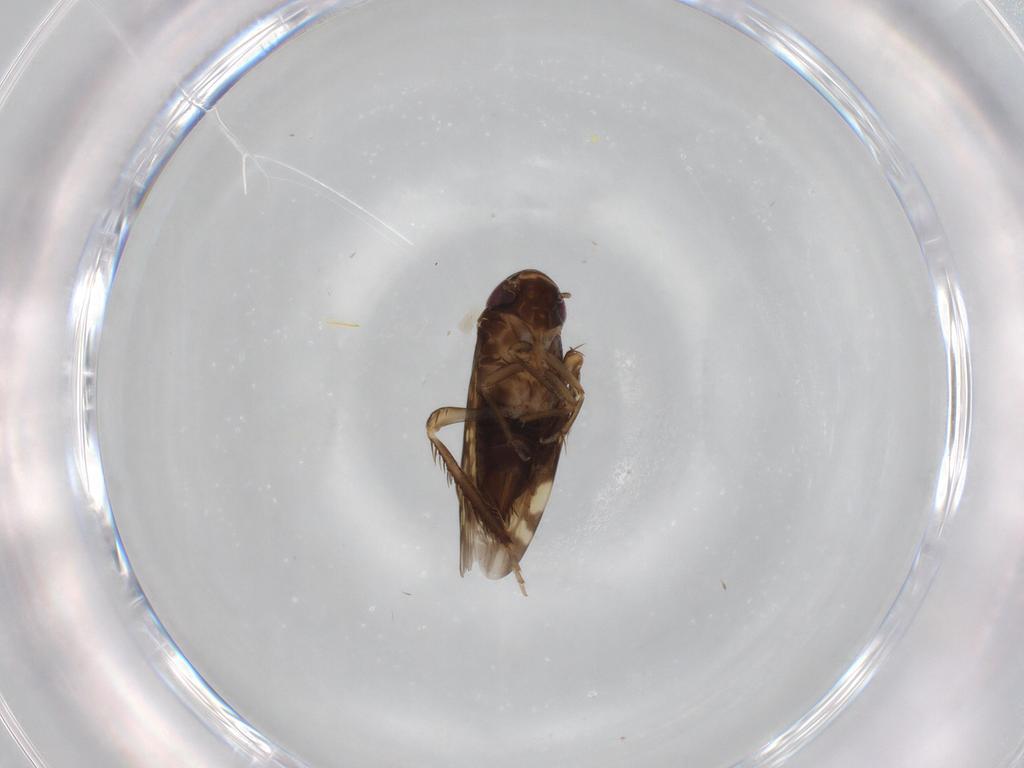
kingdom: Animalia
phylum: Arthropoda
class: Insecta
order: Hemiptera
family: Cicadellidae
